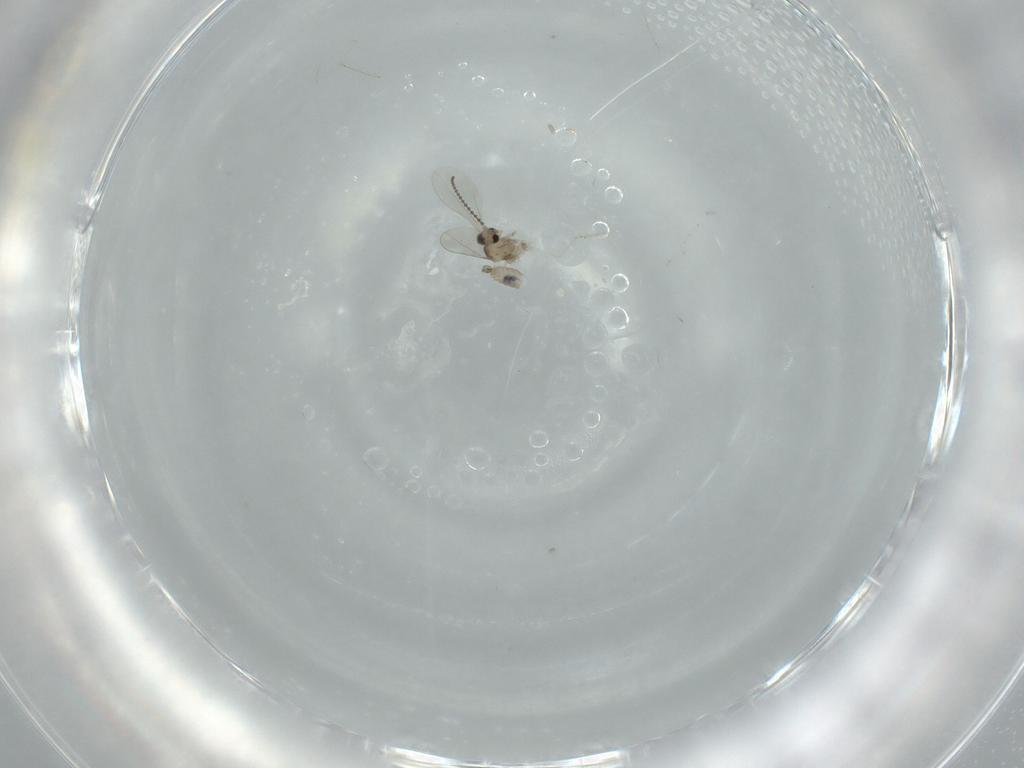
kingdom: Animalia
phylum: Arthropoda
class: Insecta
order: Diptera
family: Cecidomyiidae
